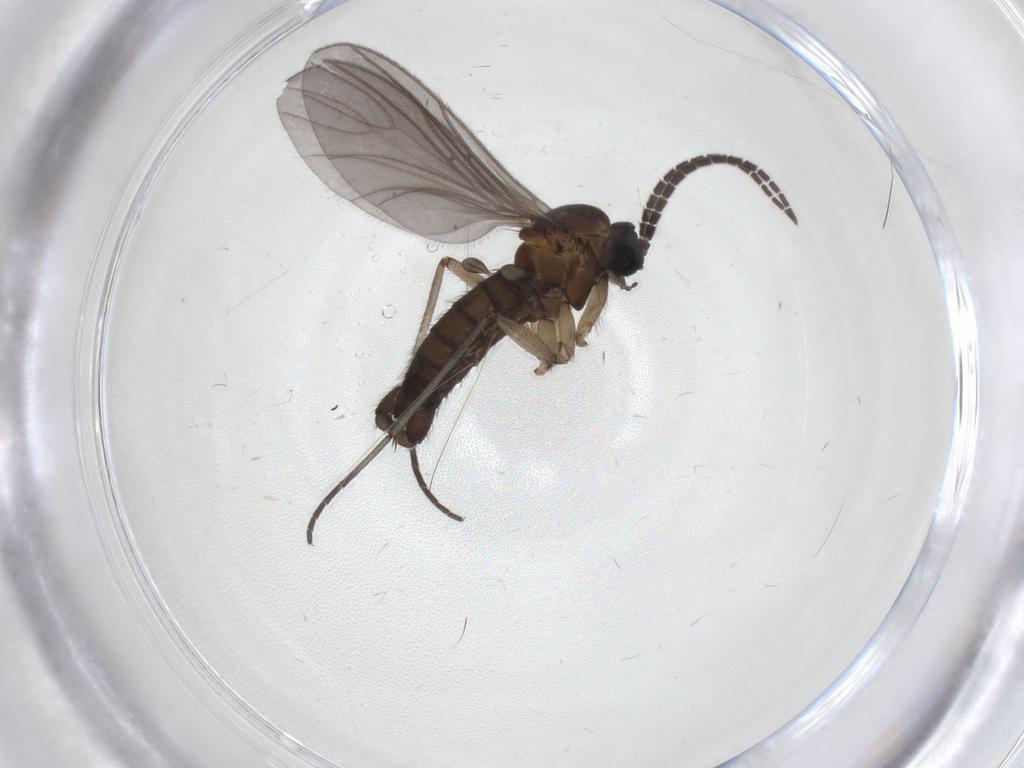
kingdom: Animalia
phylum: Arthropoda
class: Insecta
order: Diptera
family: Sciaridae
